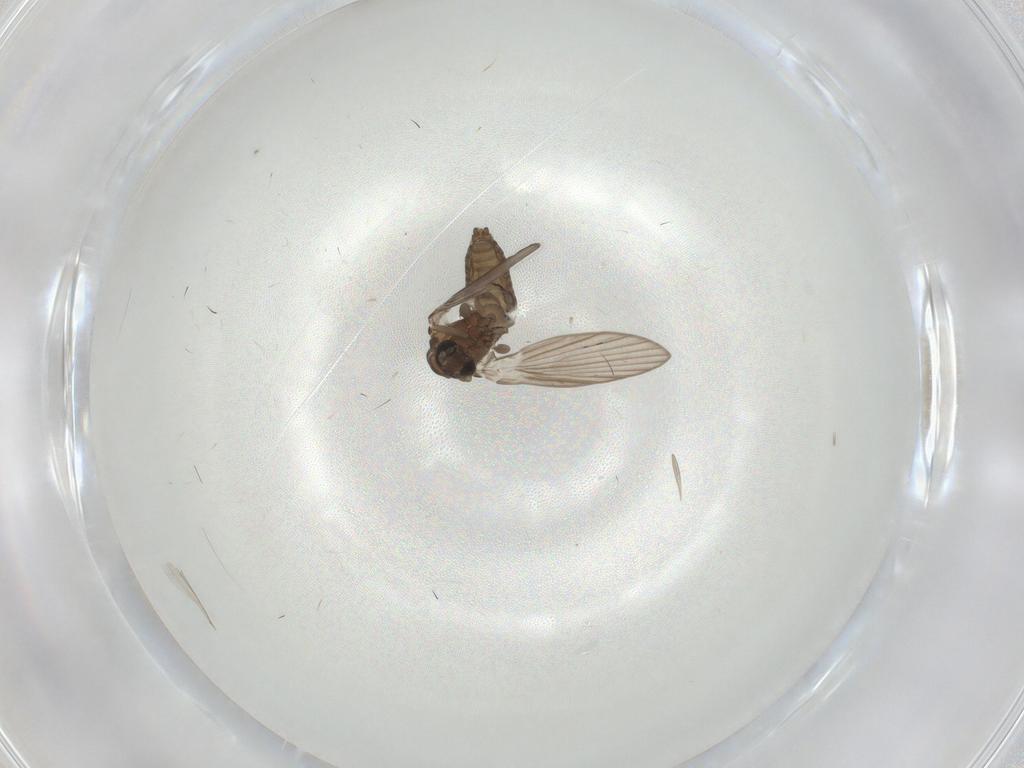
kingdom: Animalia
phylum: Arthropoda
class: Insecta
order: Diptera
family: Psychodidae
